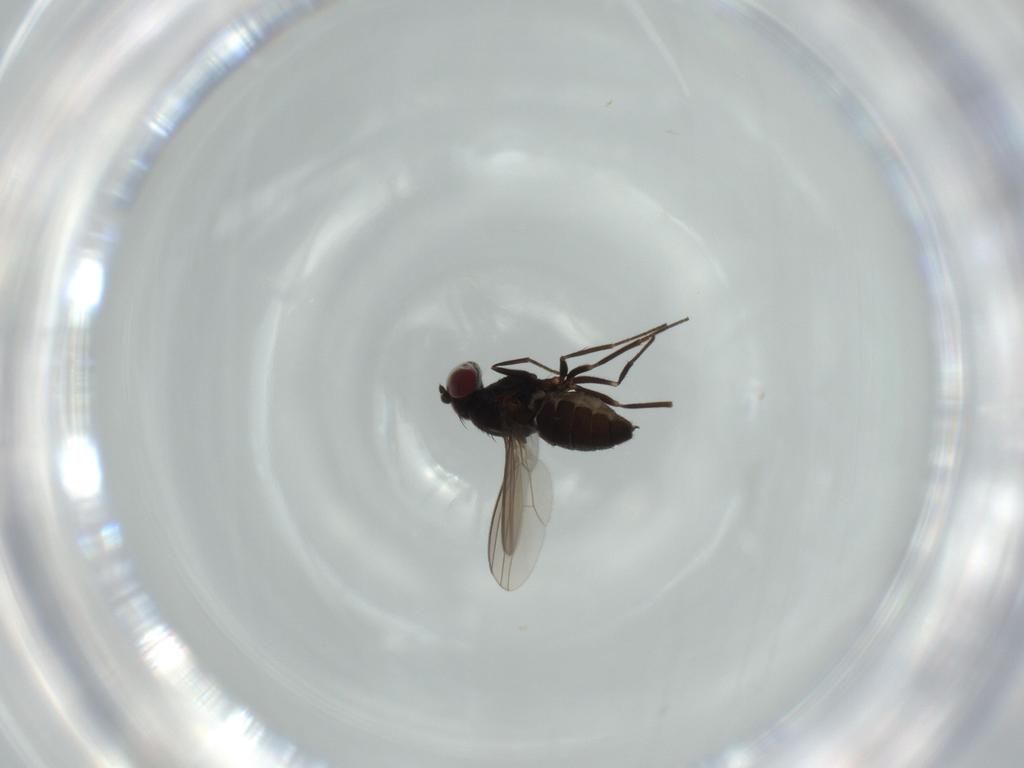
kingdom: Animalia
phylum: Arthropoda
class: Insecta
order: Diptera
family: Dolichopodidae
